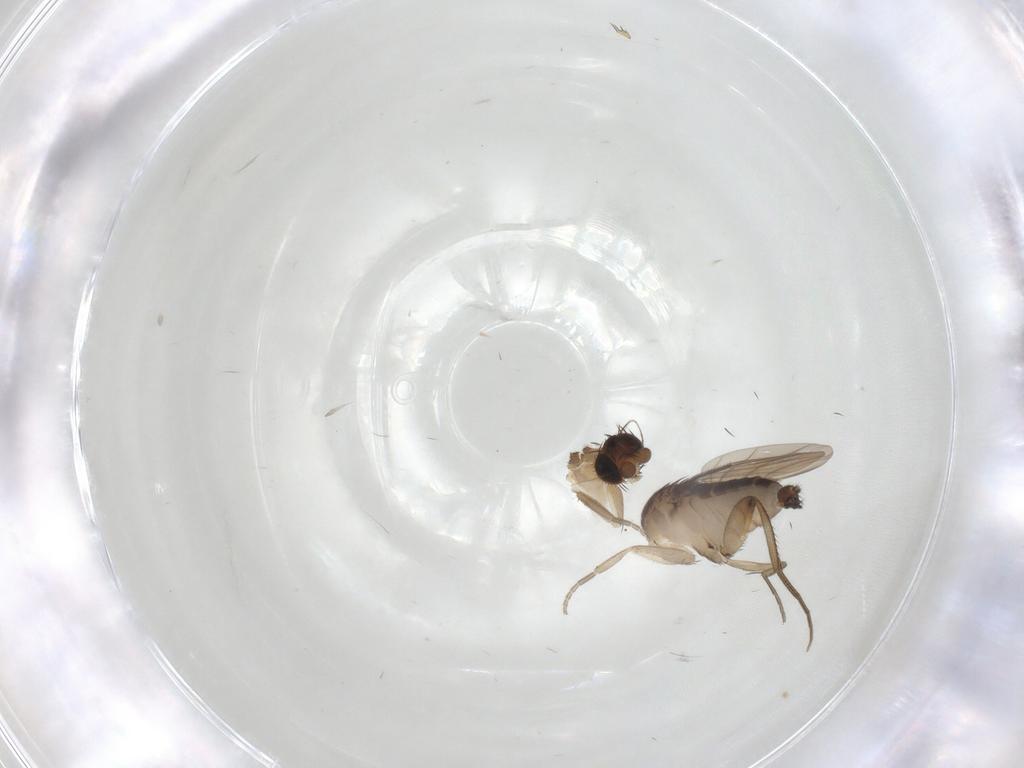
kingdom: Animalia
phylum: Arthropoda
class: Insecta
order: Diptera
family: Phoridae
